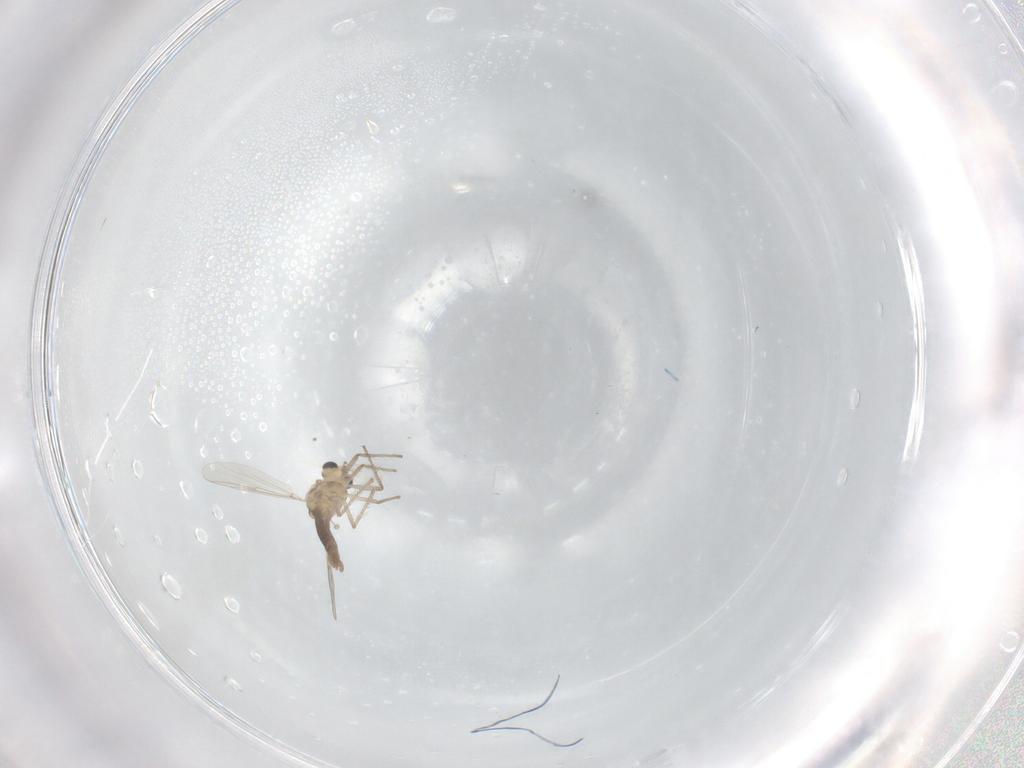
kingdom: Animalia
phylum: Arthropoda
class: Insecta
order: Diptera
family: Chironomidae
